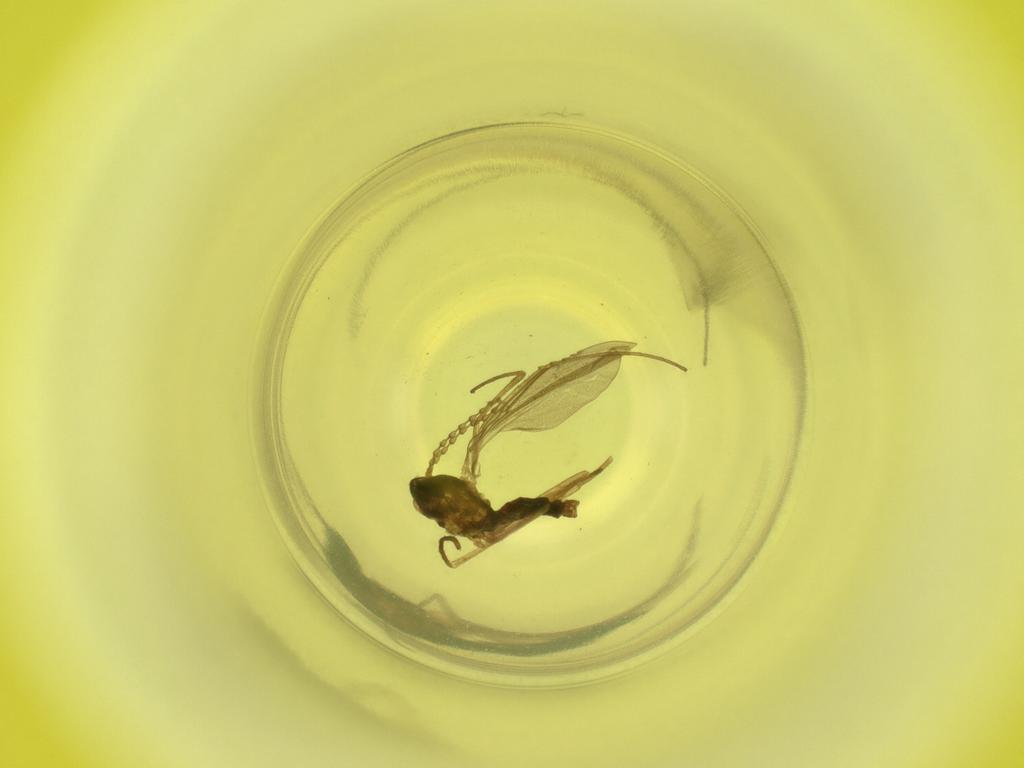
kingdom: Animalia
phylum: Arthropoda
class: Insecta
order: Diptera
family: Cecidomyiidae
